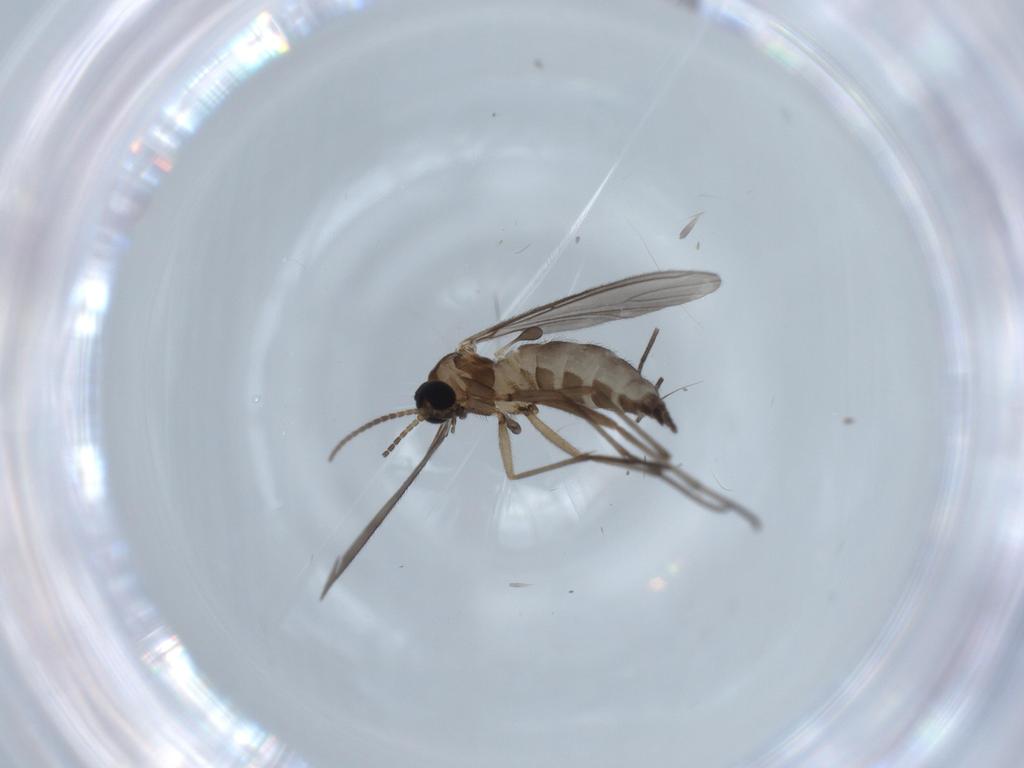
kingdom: Animalia
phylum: Arthropoda
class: Insecta
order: Diptera
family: Sciaridae
